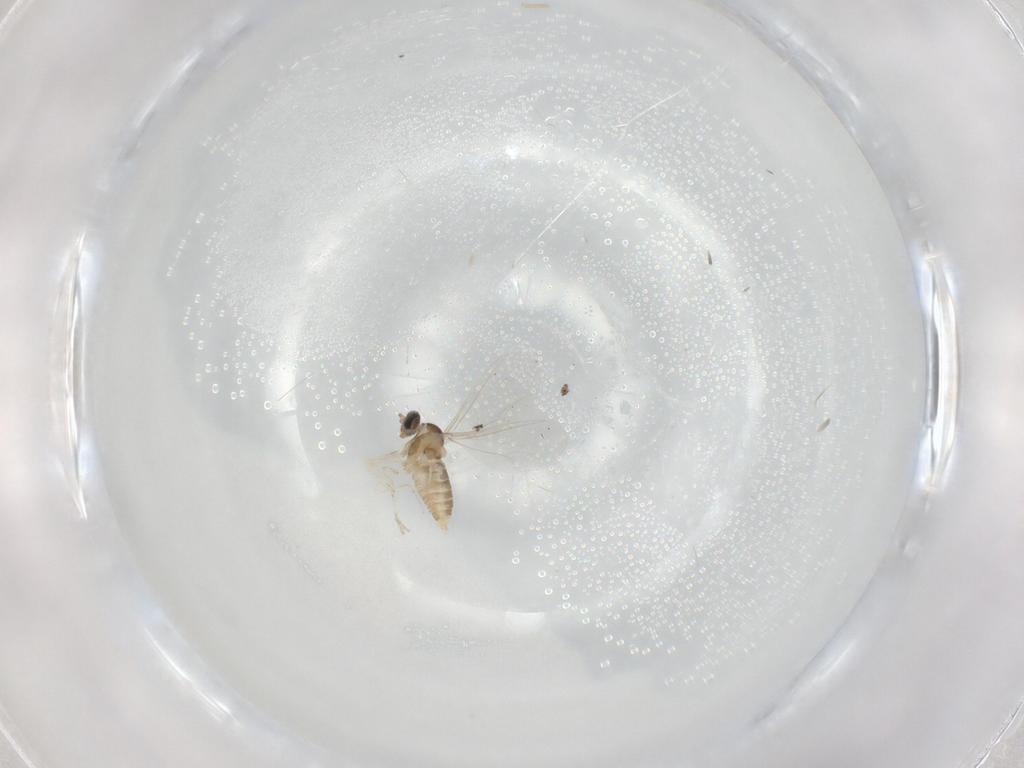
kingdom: Animalia
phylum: Arthropoda
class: Insecta
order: Diptera
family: Cecidomyiidae
